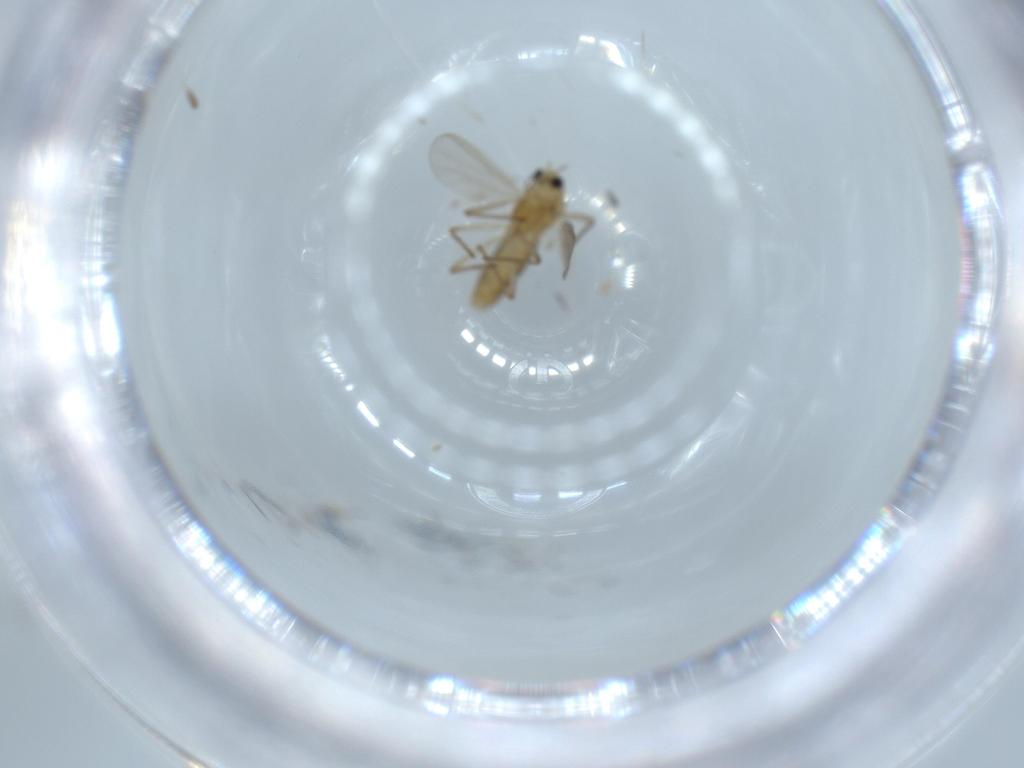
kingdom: Animalia
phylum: Arthropoda
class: Insecta
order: Diptera
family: Chironomidae
